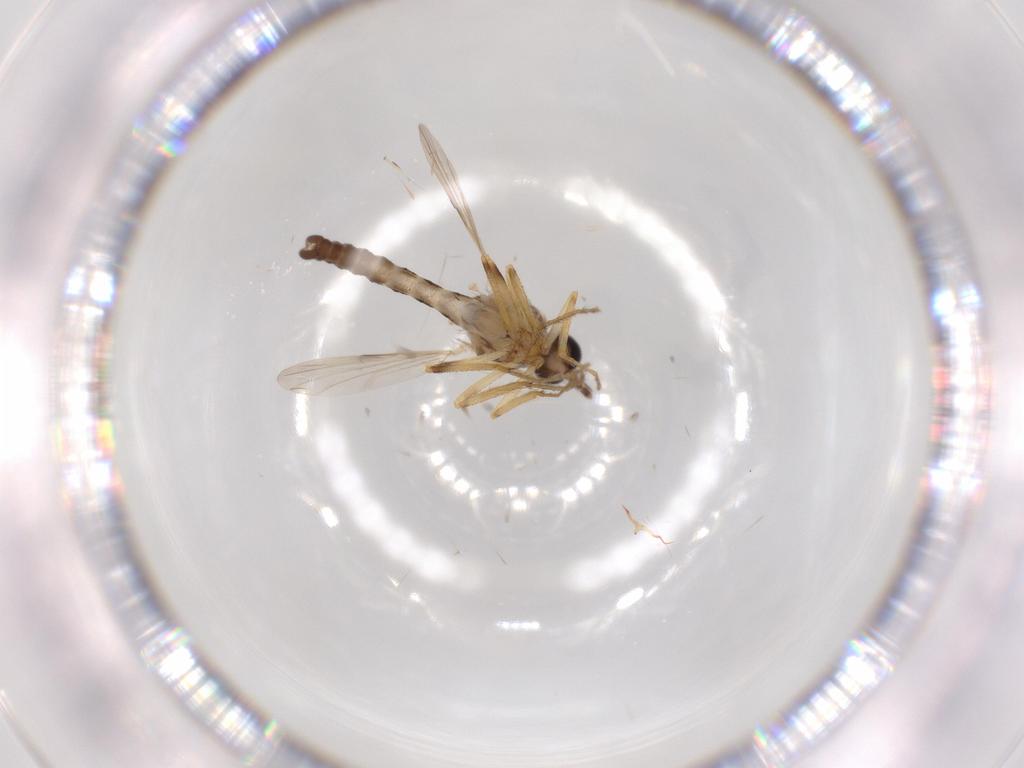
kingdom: Animalia
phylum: Arthropoda
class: Insecta
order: Diptera
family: Ceratopogonidae
